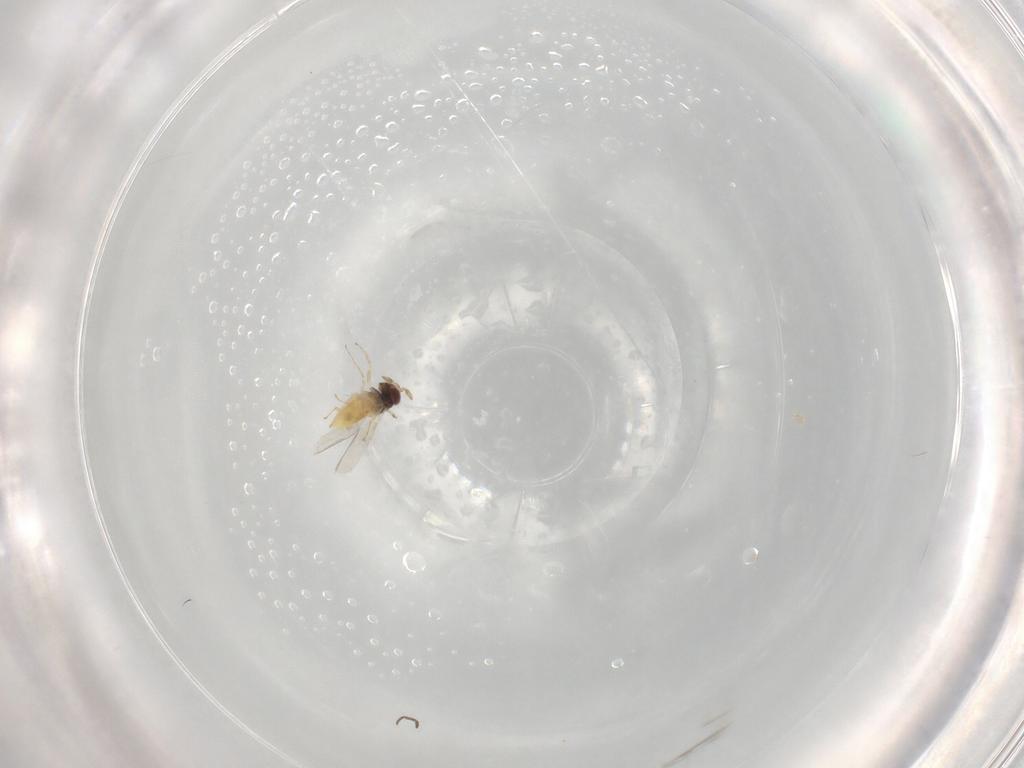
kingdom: Animalia
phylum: Arthropoda
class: Insecta
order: Hymenoptera
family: Trichogrammatidae
